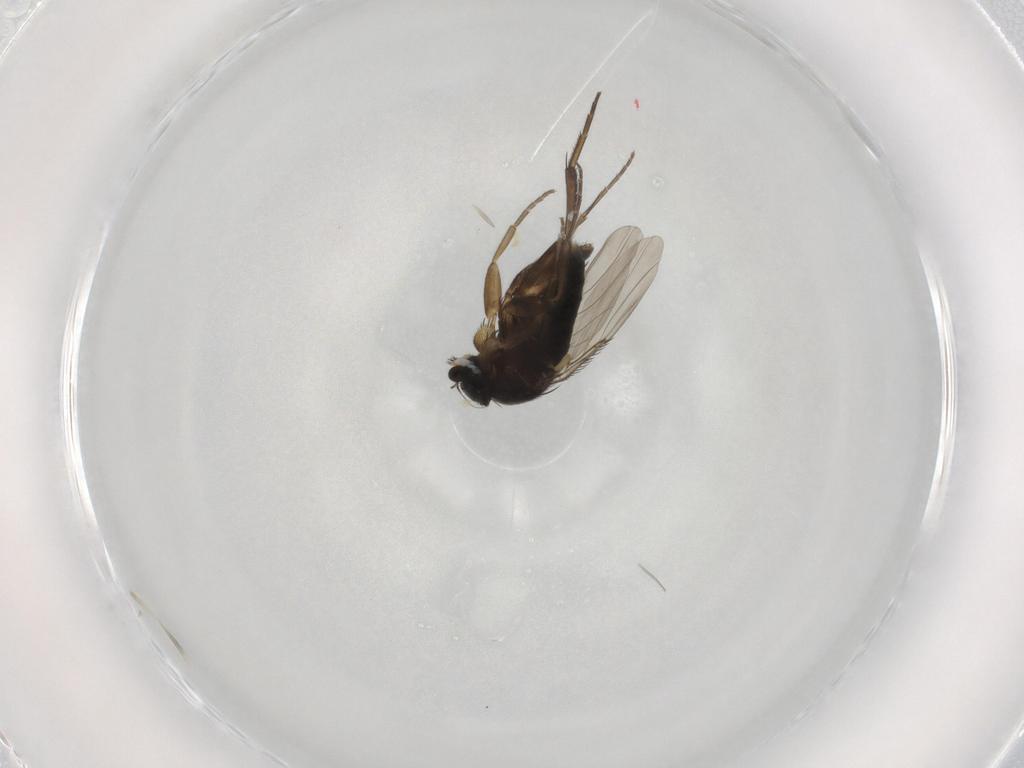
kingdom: Animalia
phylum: Arthropoda
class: Insecta
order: Diptera
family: Phoridae
